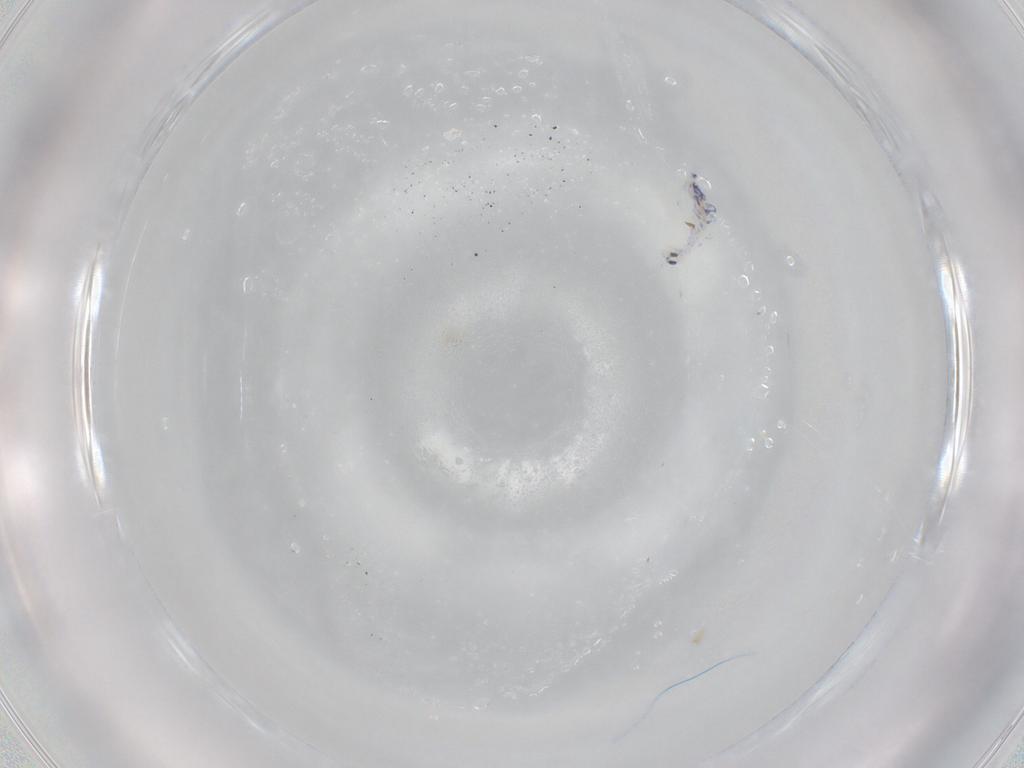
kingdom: Animalia
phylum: Arthropoda
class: Collembola
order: Entomobryomorpha
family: Entomobryidae
